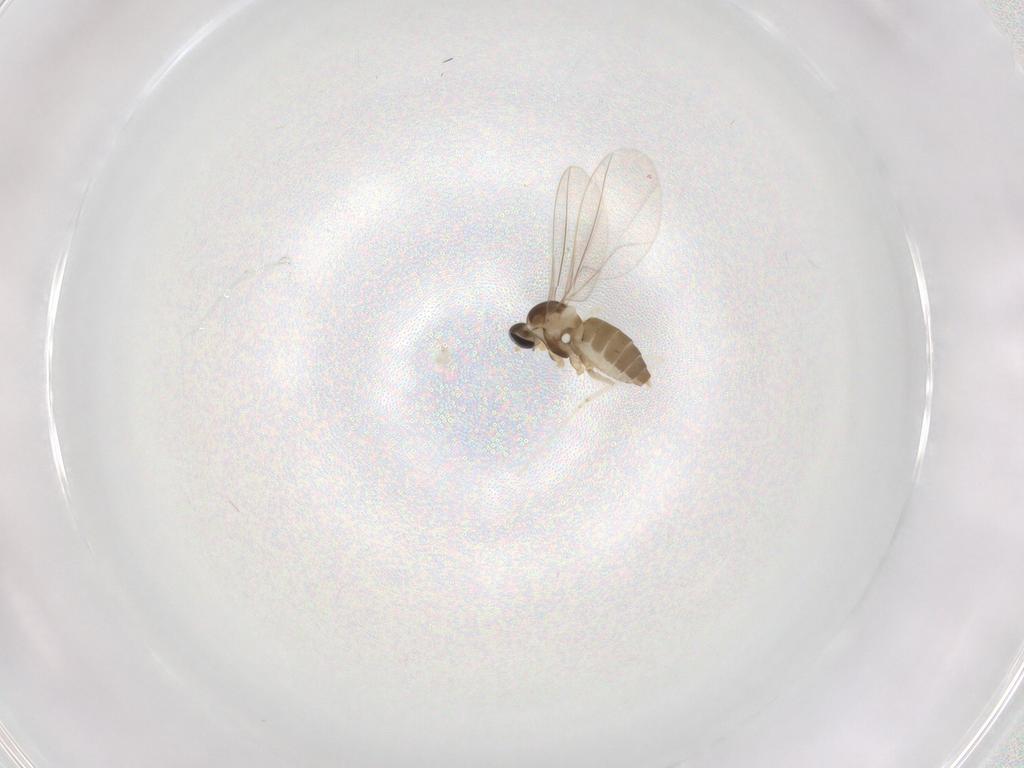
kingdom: Animalia
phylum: Arthropoda
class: Insecta
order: Diptera
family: Cecidomyiidae
